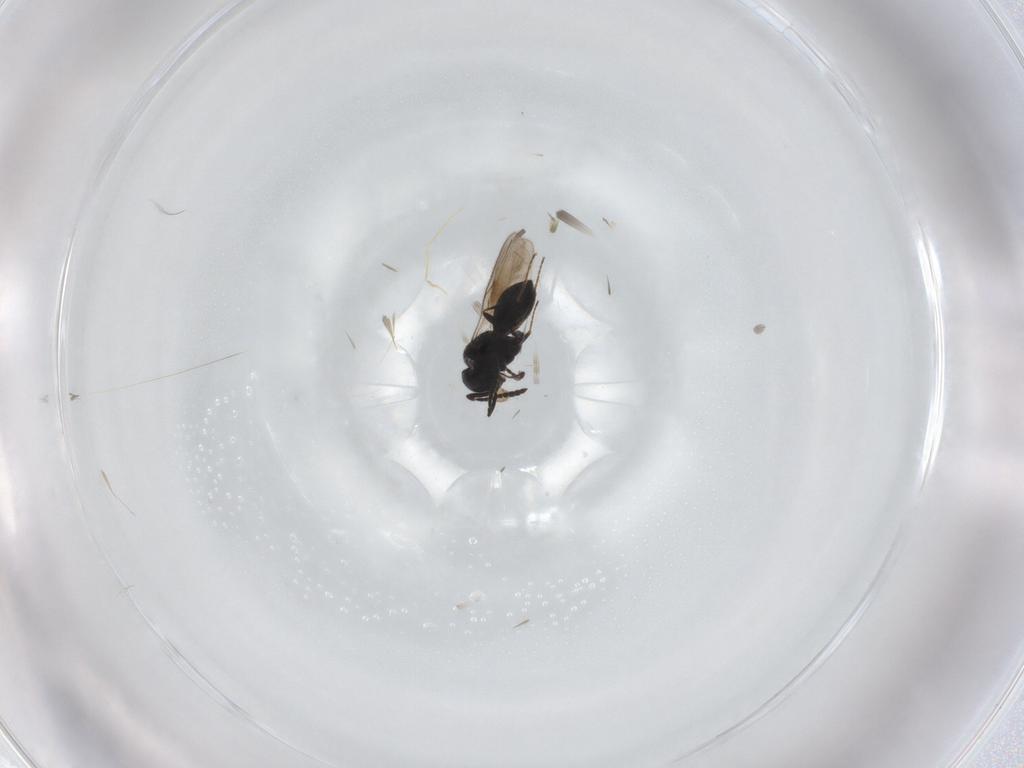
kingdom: Animalia
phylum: Arthropoda
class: Insecta
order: Hymenoptera
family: Scelionidae
